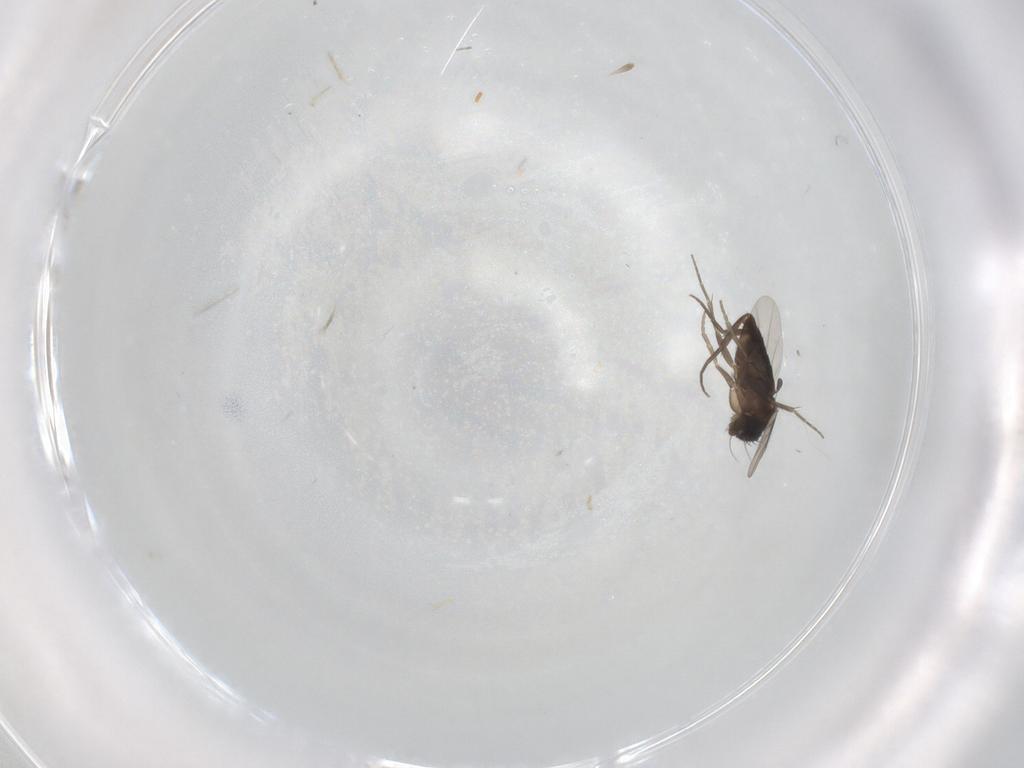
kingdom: Animalia
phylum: Arthropoda
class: Insecta
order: Diptera
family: Phoridae
